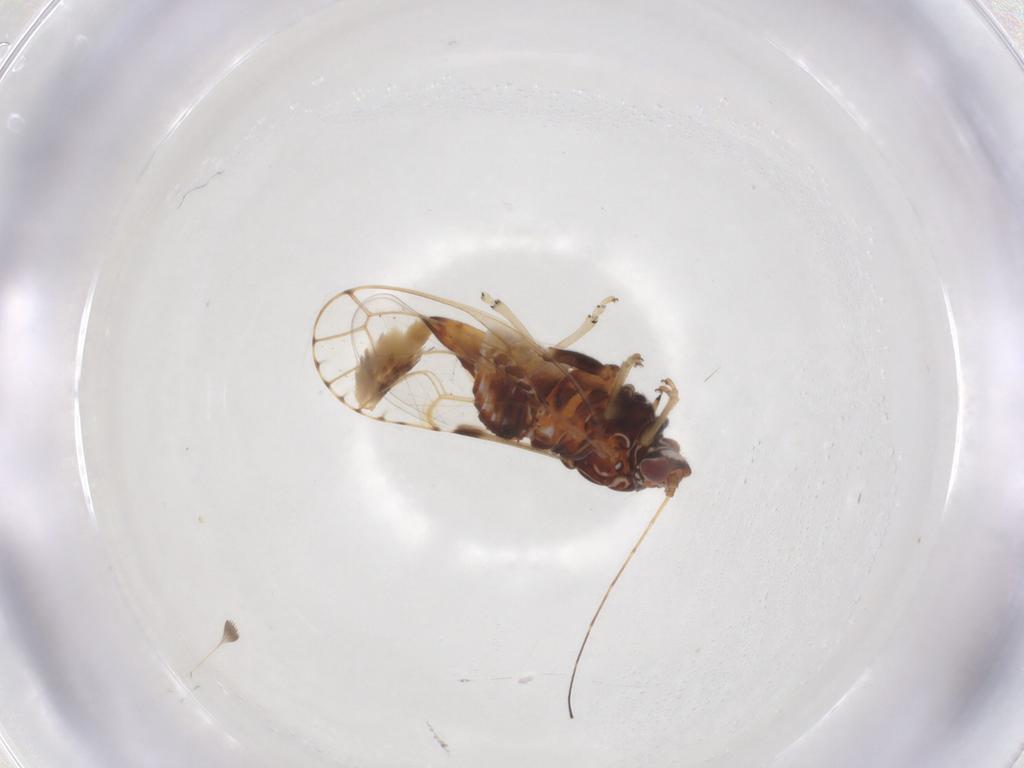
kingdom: Animalia
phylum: Arthropoda
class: Insecta
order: Lepidoptera
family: Noctuidae
